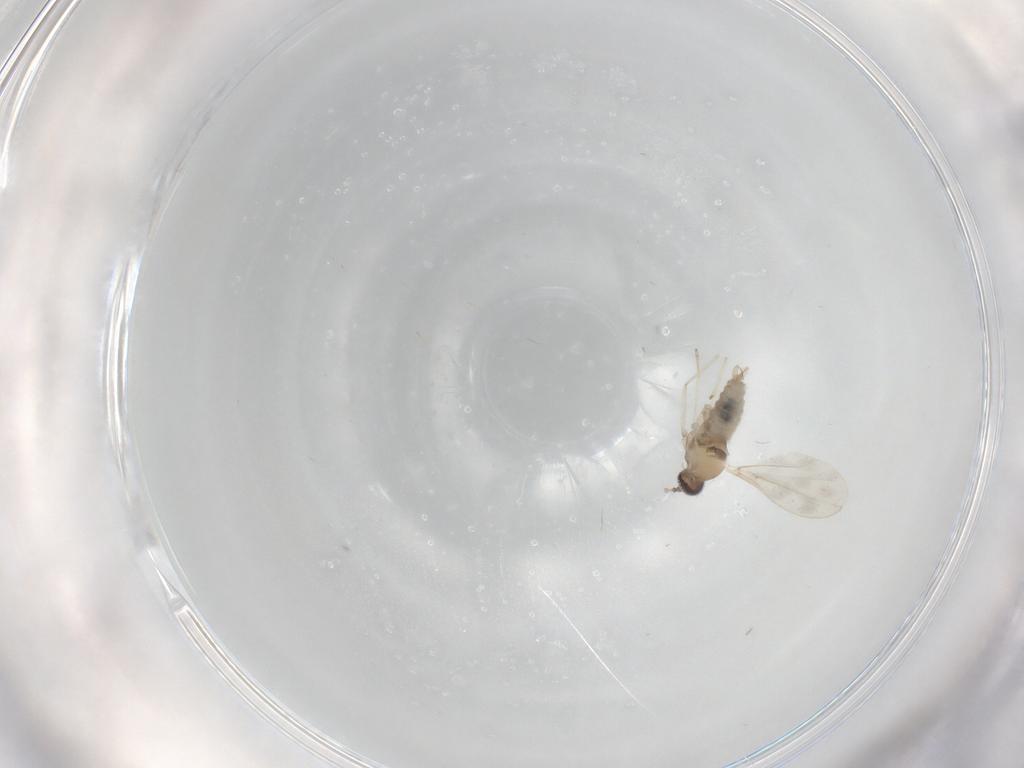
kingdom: Animalia
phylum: Arthropoda
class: Insecta
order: Diptera
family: Cecidomyiidae
